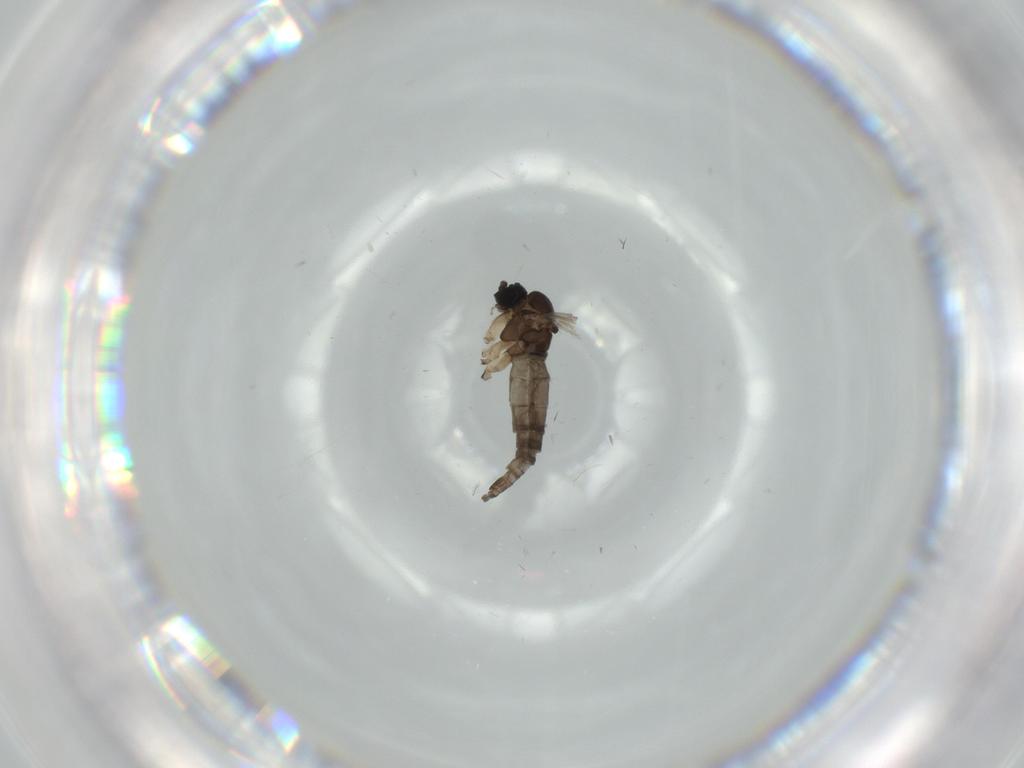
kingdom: Animalia
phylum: Arthropoda
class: Insecta
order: Diptera
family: Sciaridae
